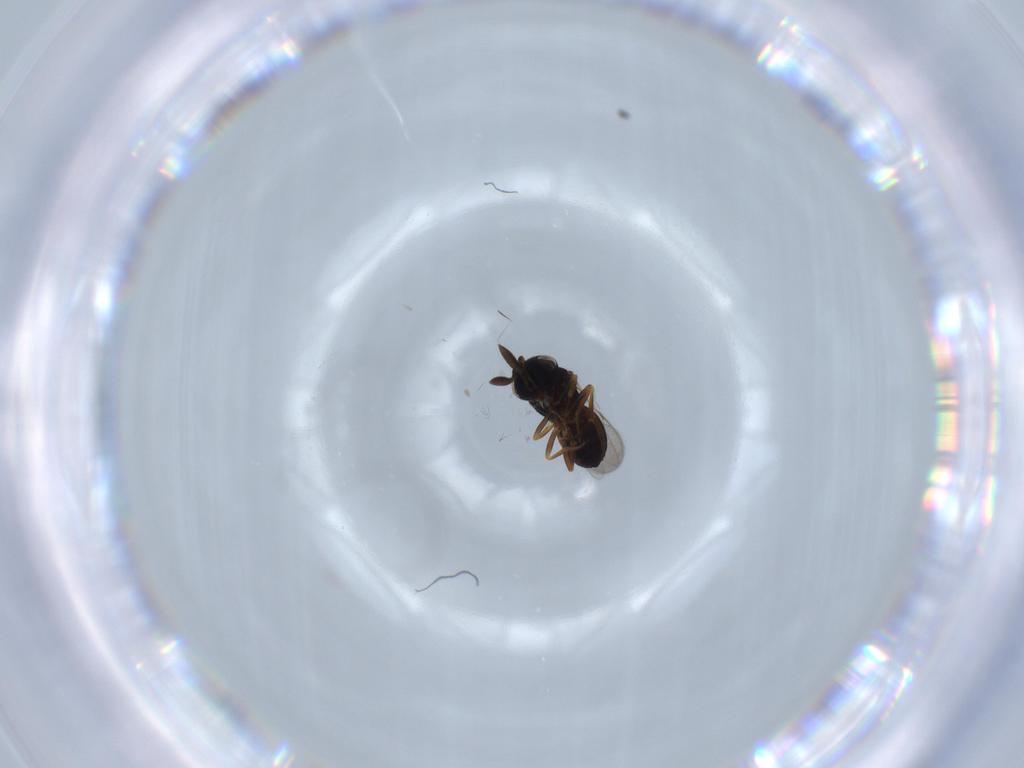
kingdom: Animalia
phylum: Arthropoda
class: Insecta
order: Hymenoptera
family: Scelionidae
